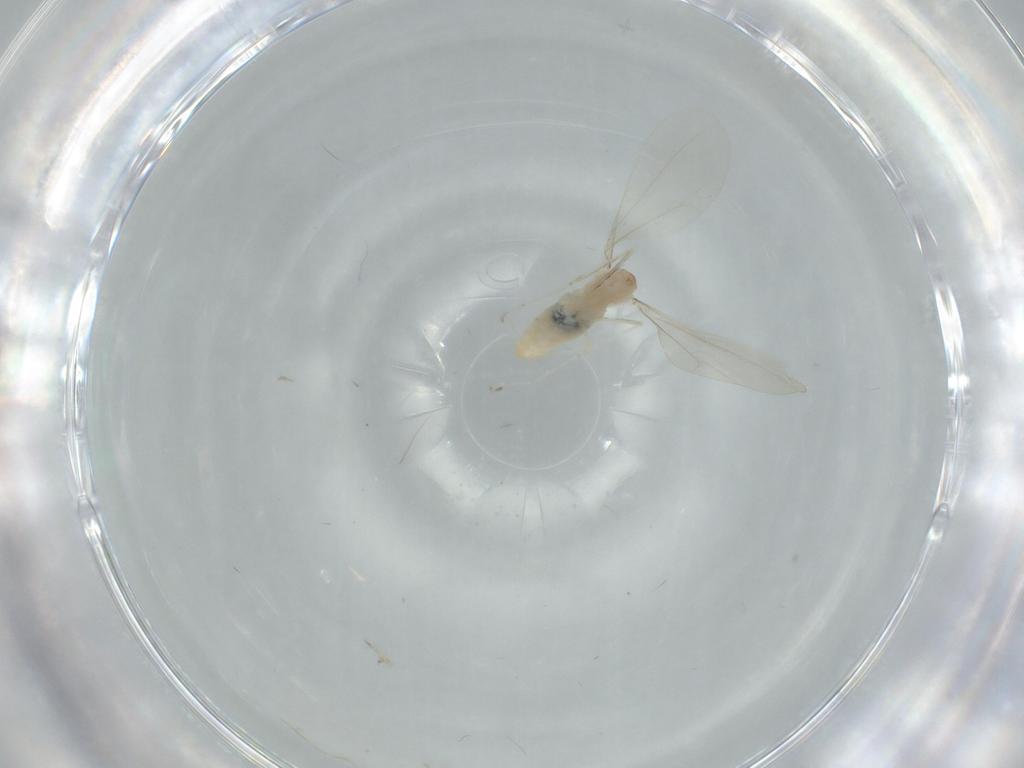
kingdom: Animalia
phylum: Arthropoda
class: Insecta
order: Diptera
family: Cecidomyiidae
